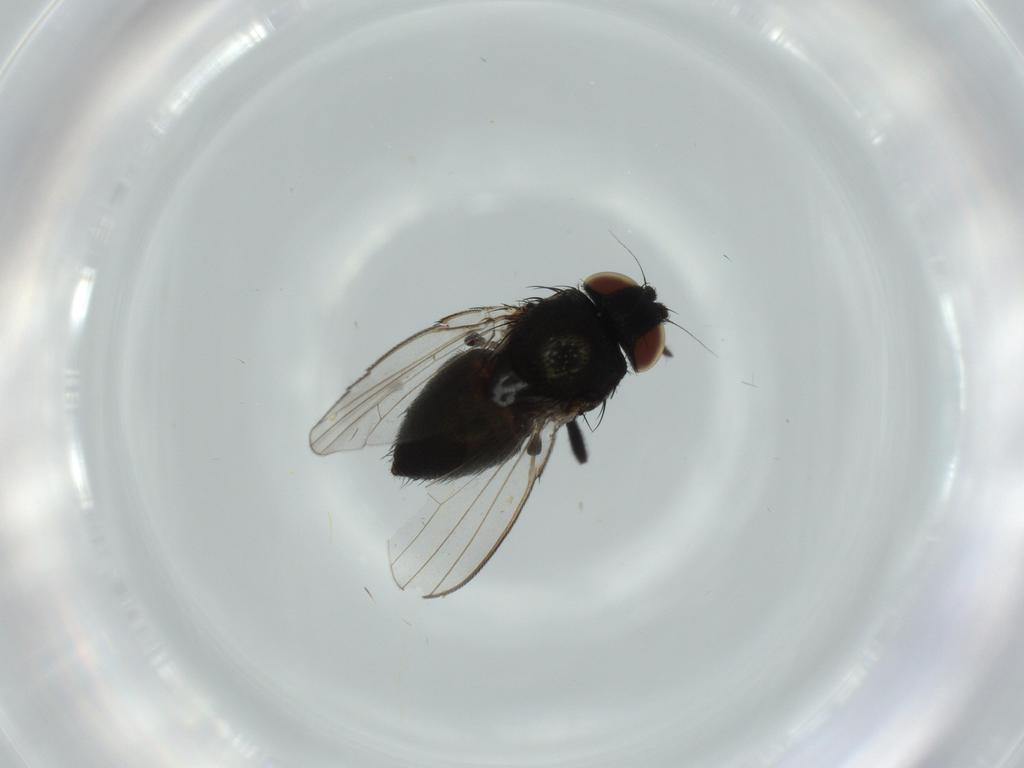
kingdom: Animalia
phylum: Arthropoda
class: Insecta
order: Diptera
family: Phoridae
